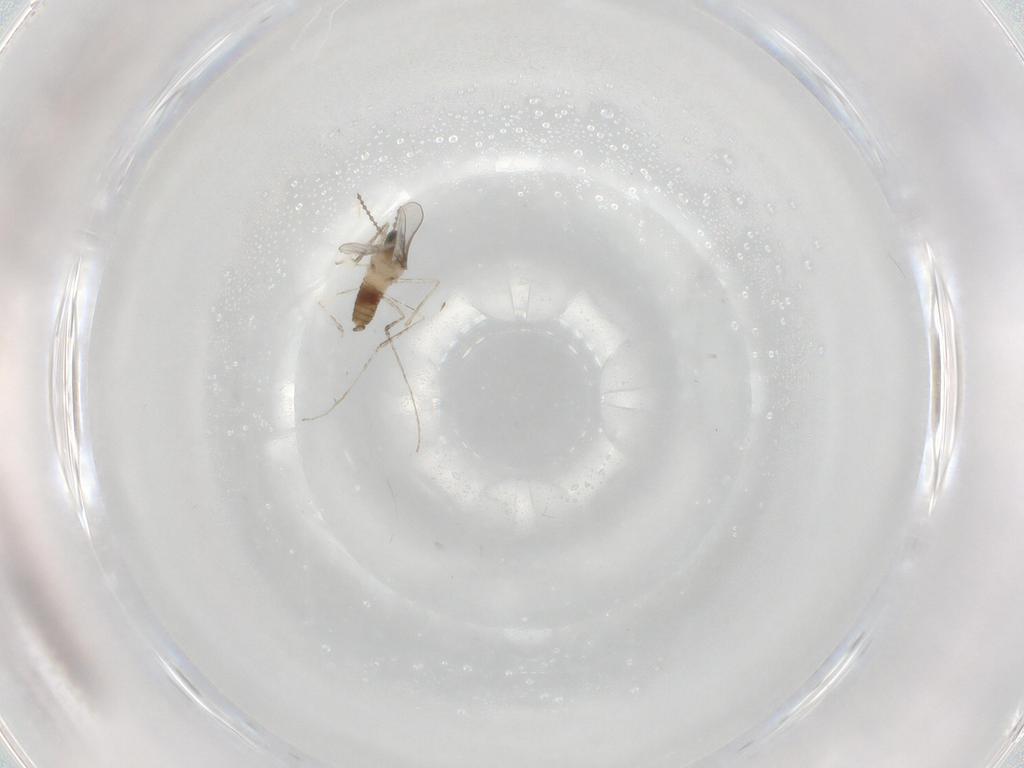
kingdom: Animalia
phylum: Arthropoda
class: Insecta
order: Diptera
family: Cecidomyiidae
